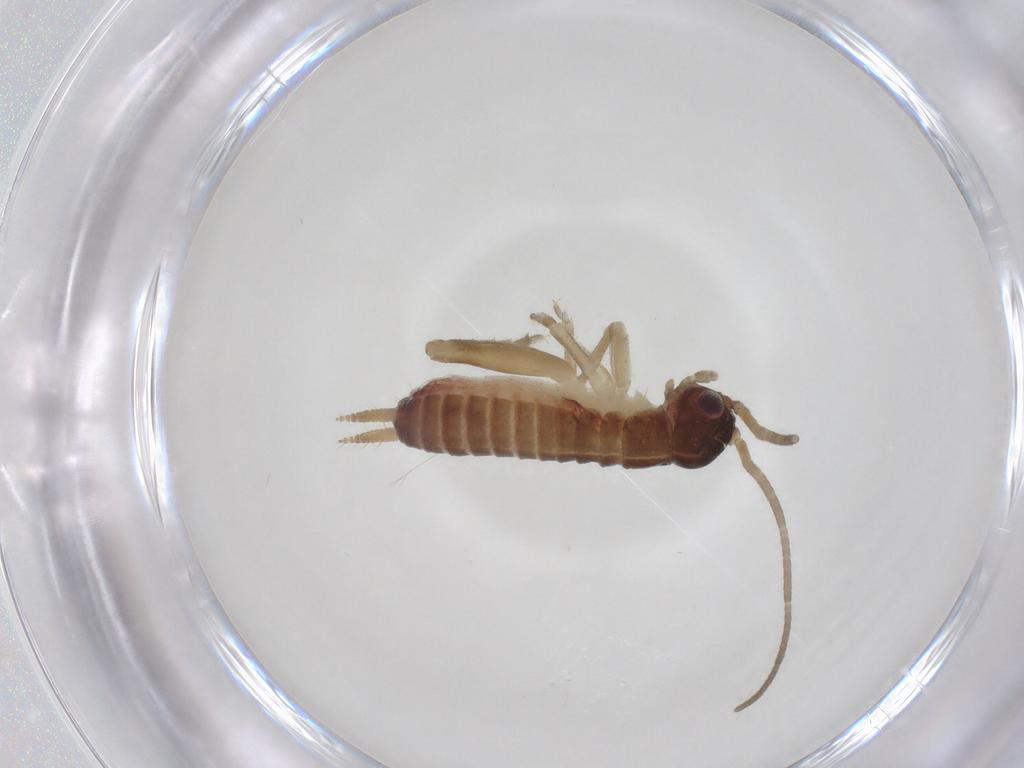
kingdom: Animalia
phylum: Arthropoda
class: Insecta
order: Orthoptera
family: Gryllidae
